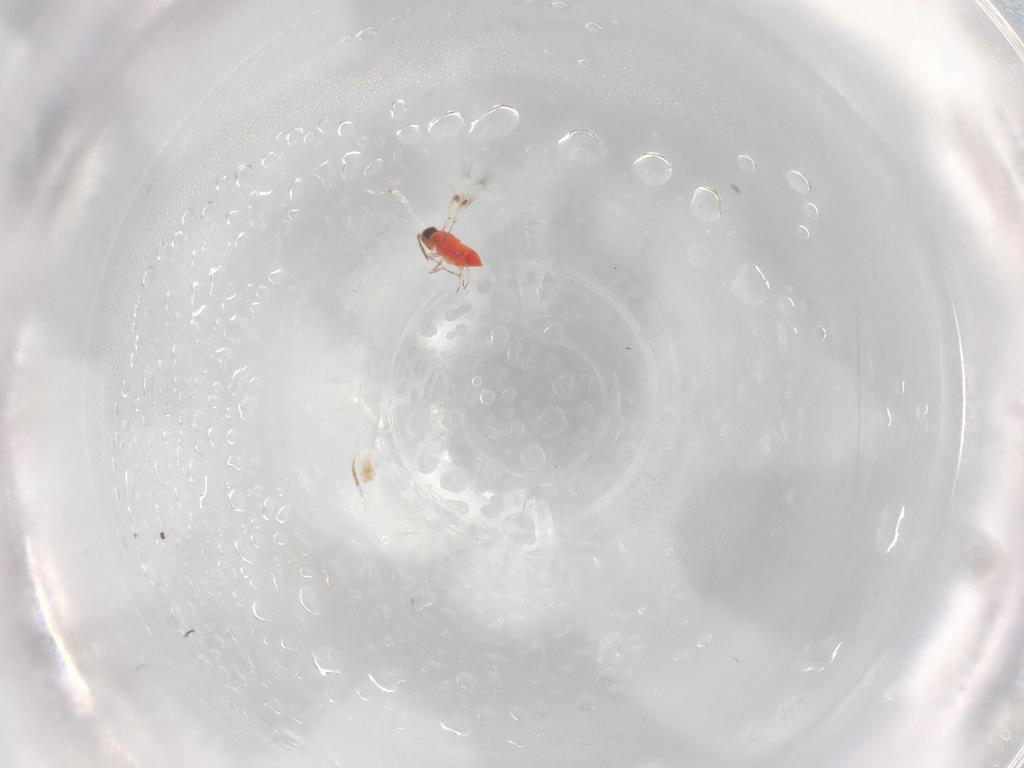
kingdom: Animalia
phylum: Arthropoda
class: Insecta
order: Hymenoptera
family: Trichogrammatidae
